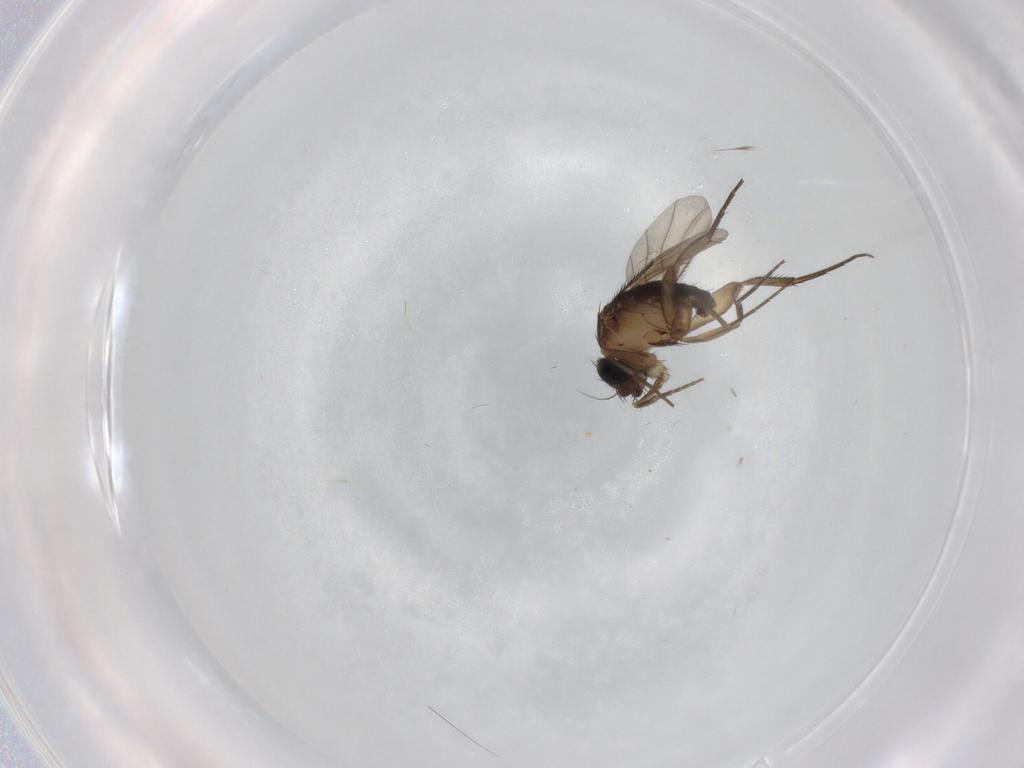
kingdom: Animalia
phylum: Arthropoda
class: Insecta
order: Diptera
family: Phoridae
